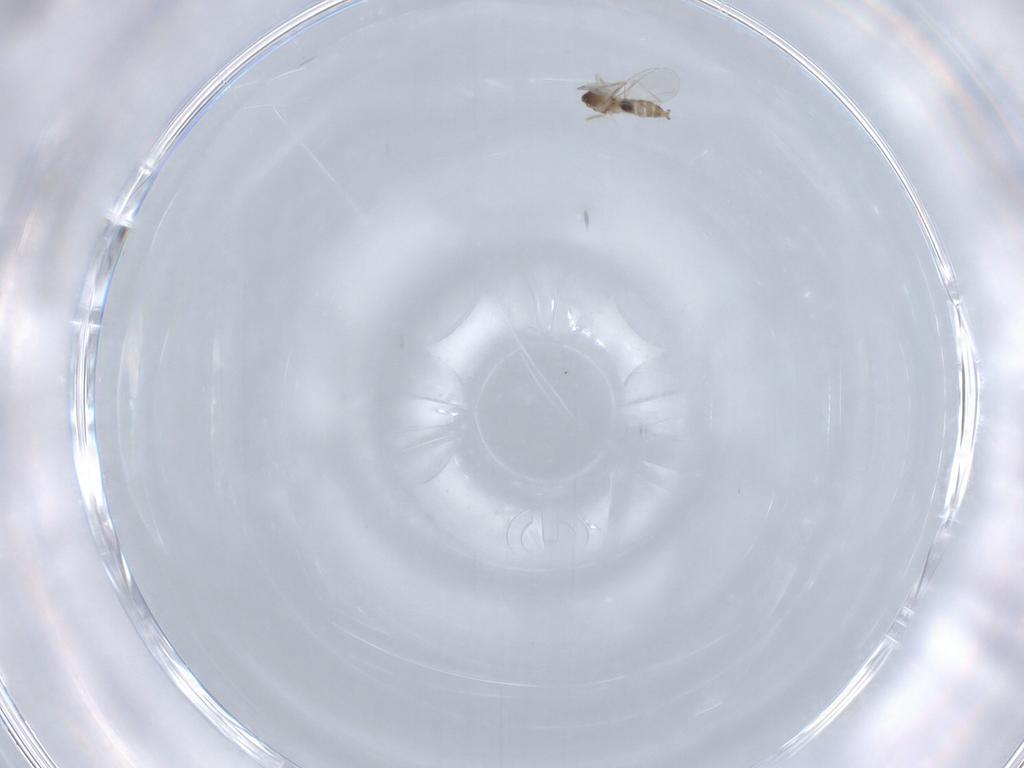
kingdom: Animalia
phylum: Arthropoda
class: Insecta
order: Diptera
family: Cecidomyiidae
